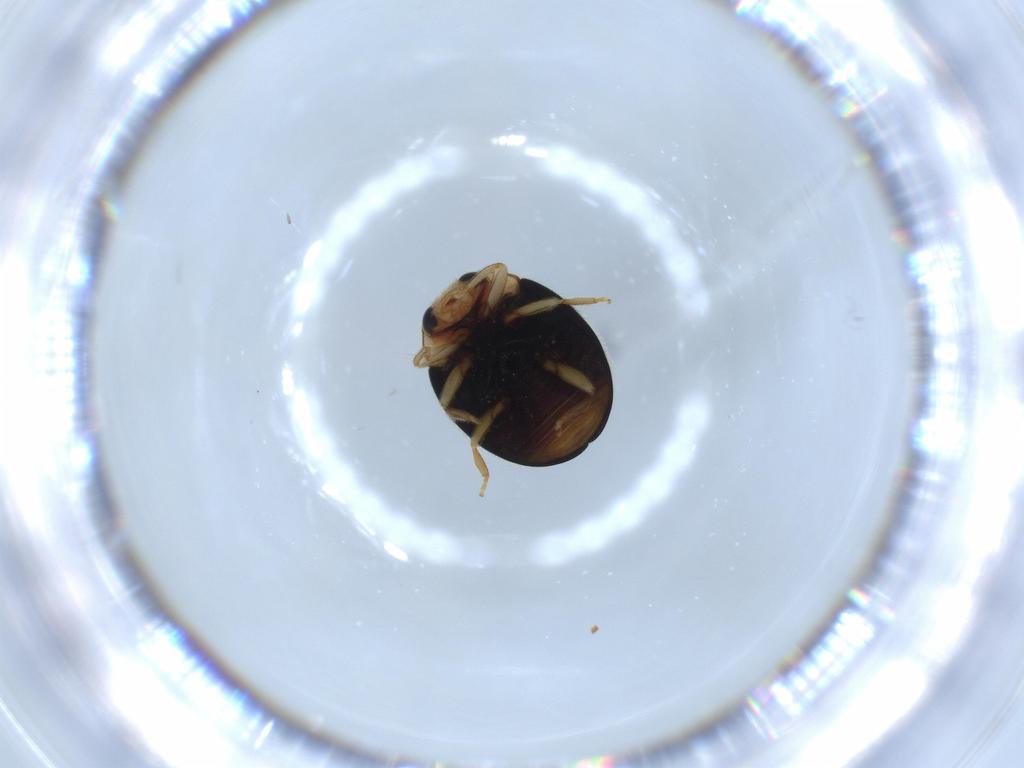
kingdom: Animalia
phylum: Arthropoda
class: Insecta
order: Coleoptera
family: Coccinellidae
